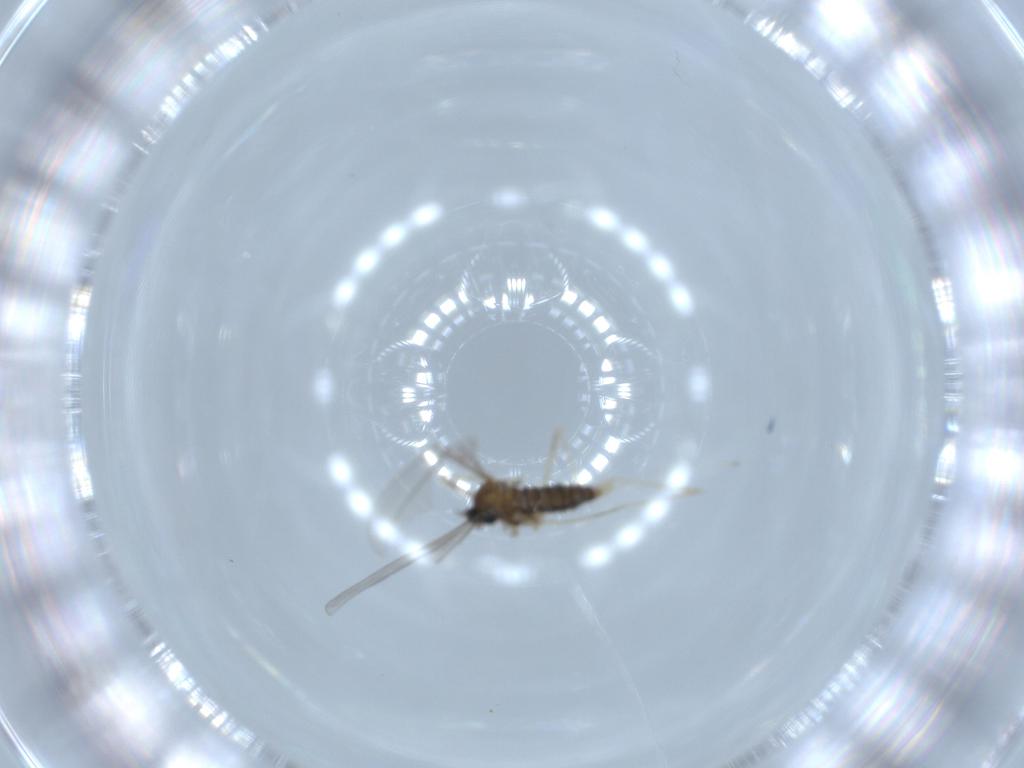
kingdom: Animalia
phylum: Arthropoda
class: Insecta
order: Diptera
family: Cecidomyiidae
